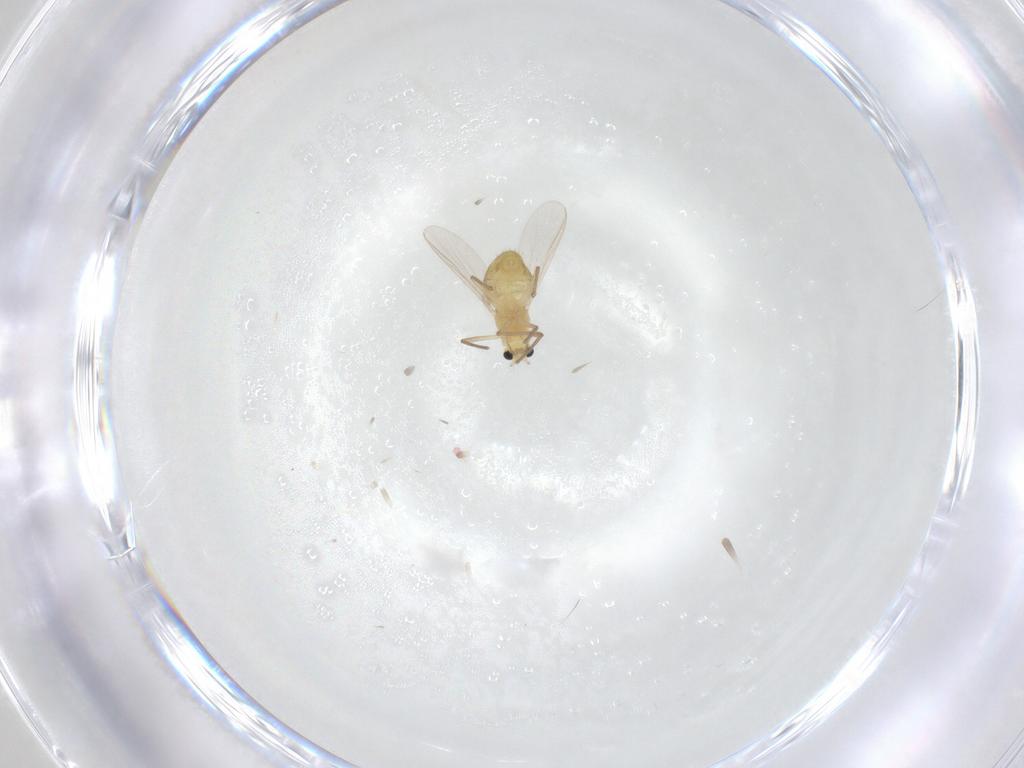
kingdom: Animalia
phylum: Arthropoda
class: Insecta
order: Diptera
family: Chironomidae
